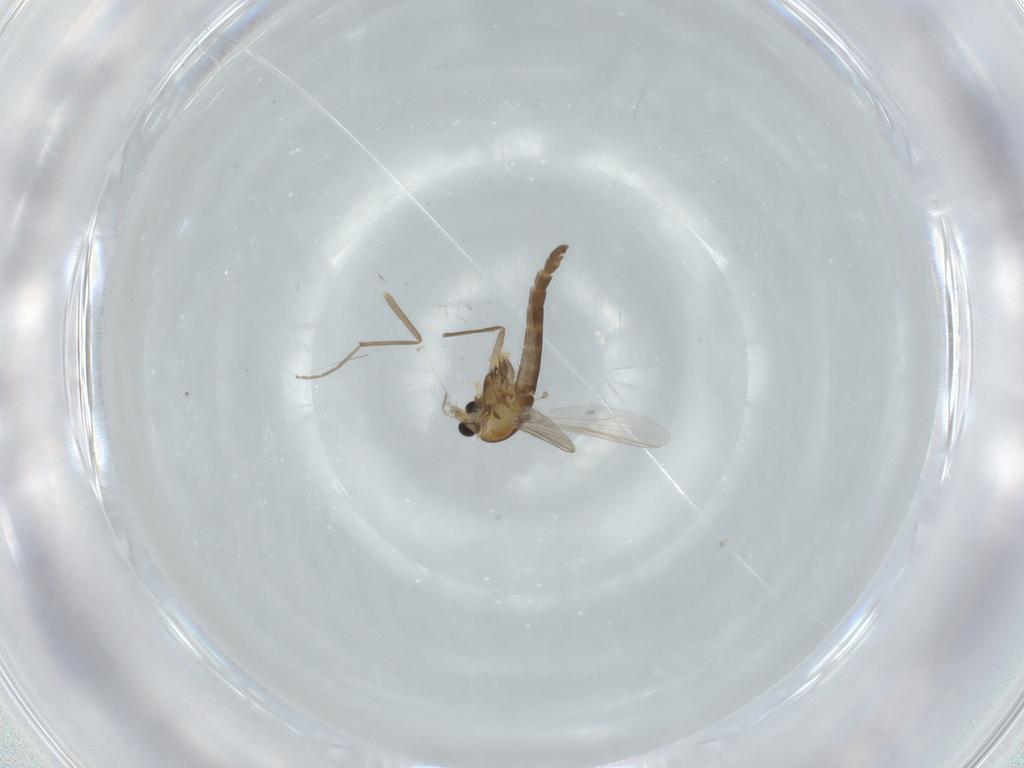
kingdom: Animalia
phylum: Arthropoda
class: Insecta
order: Diptera
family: Chironomidae
